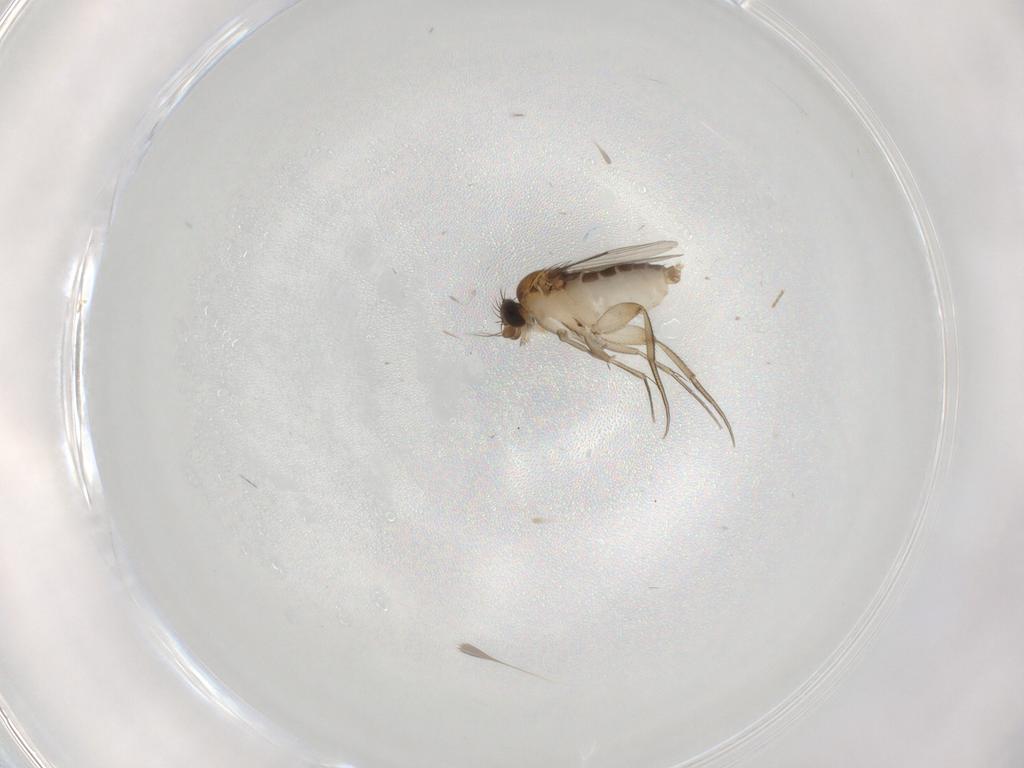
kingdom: Animalia
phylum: Arthropoda
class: Insecta
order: Diptera
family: Phoridae
